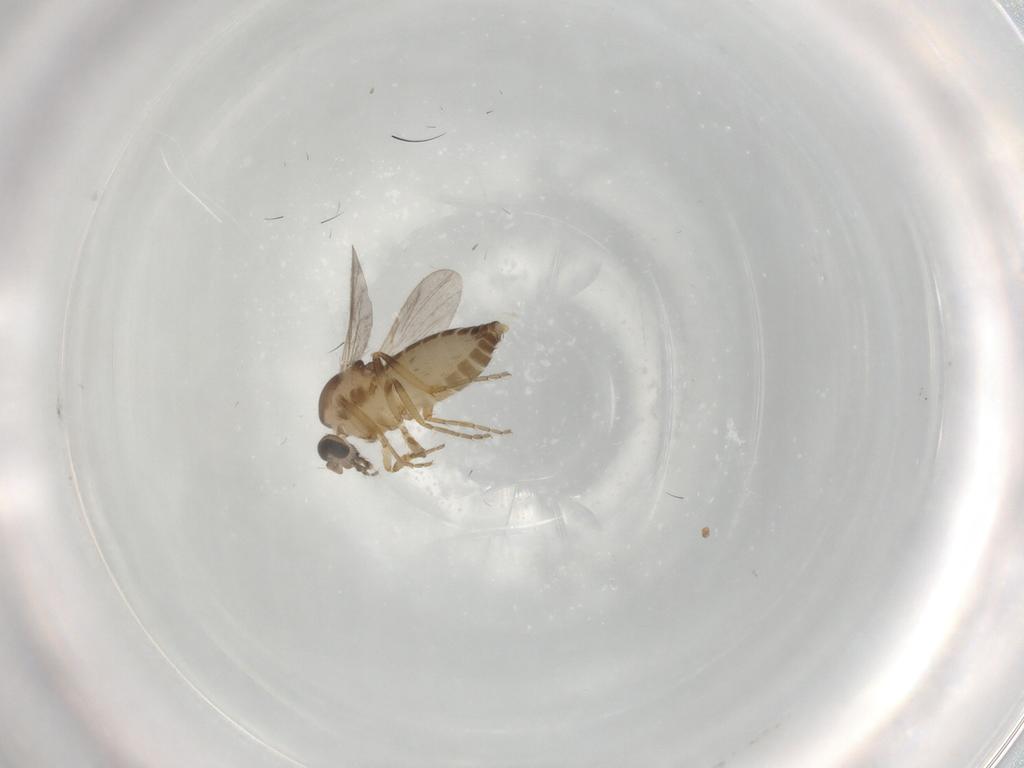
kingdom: Animalia
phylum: Arthropoda
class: Insecta
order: Diptera
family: Ceratopogonidae
